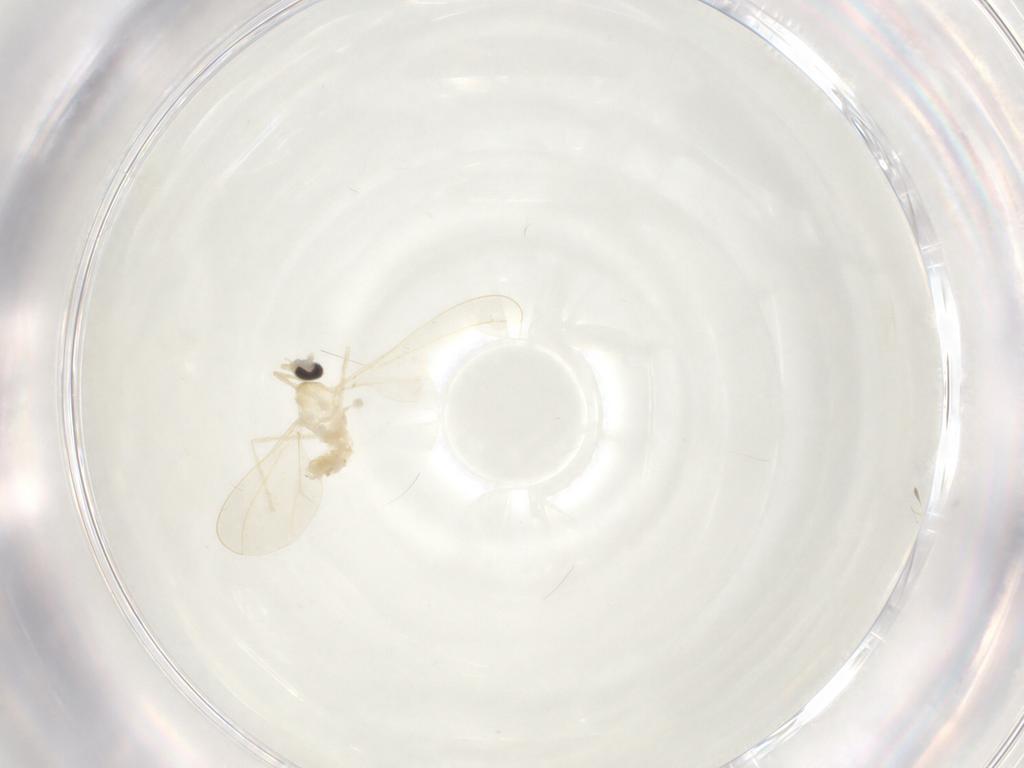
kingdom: Animalia
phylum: Arthropoda
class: Insecta
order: Diptera
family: Cecidomyiidae
